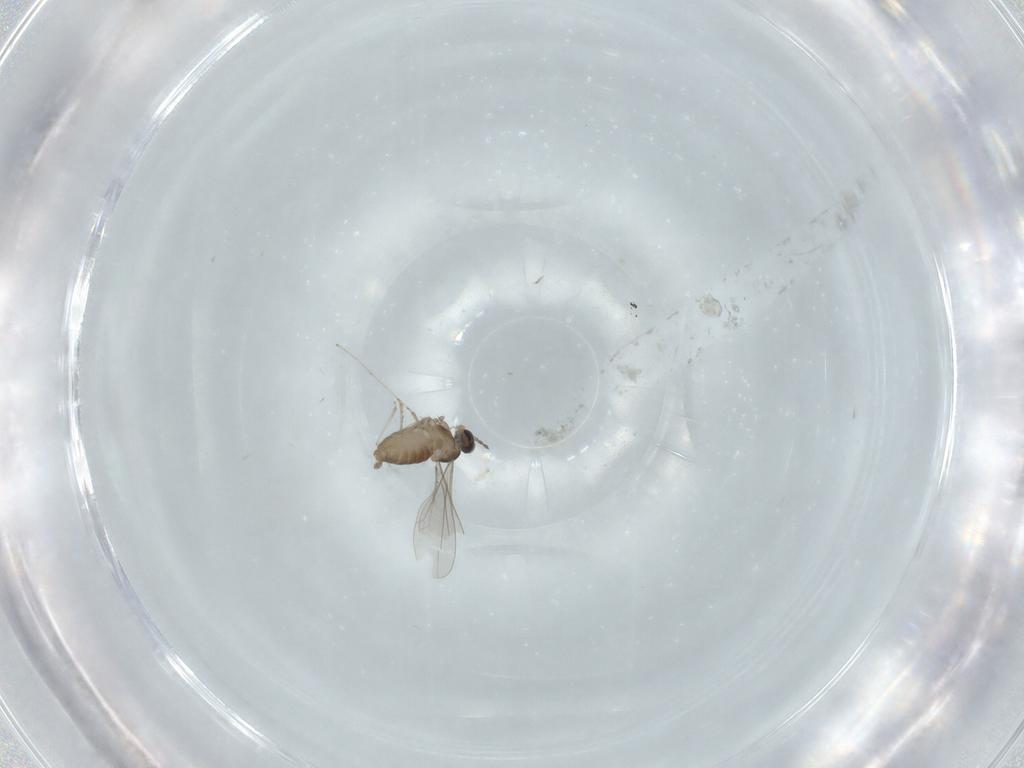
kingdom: Animalia
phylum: Arthropoda
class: Insecta
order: Diptera
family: Cecidomyiidae
